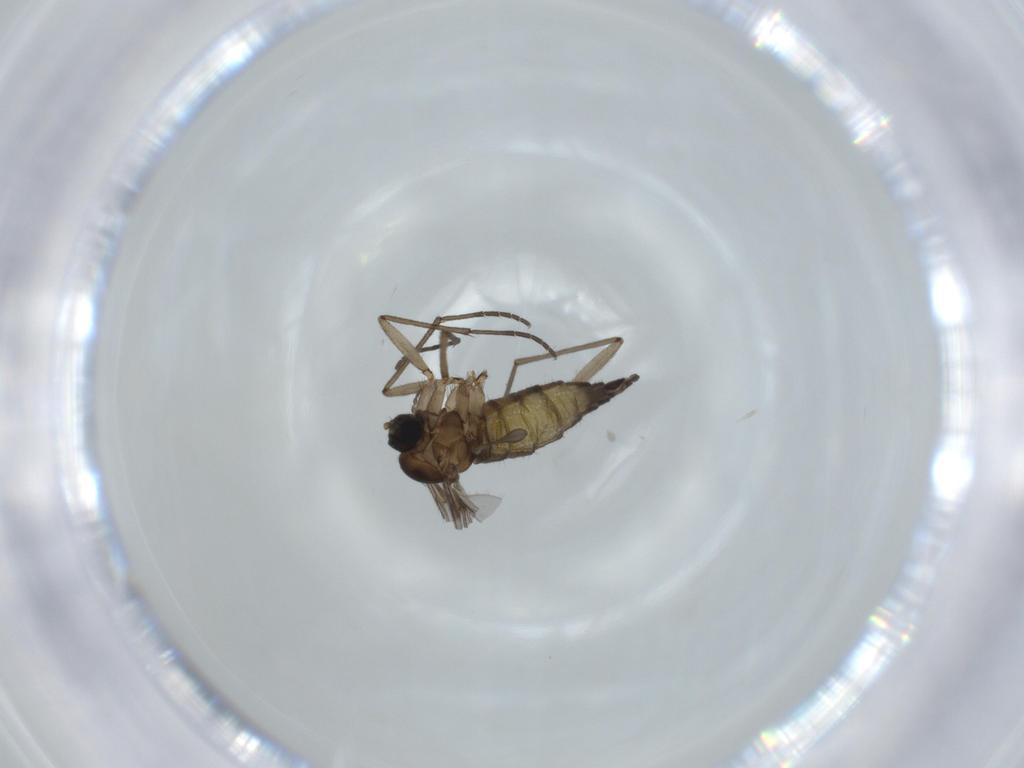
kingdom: Animalia
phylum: Arthropoda
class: Insecta
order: Diptera
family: Sciaridae
